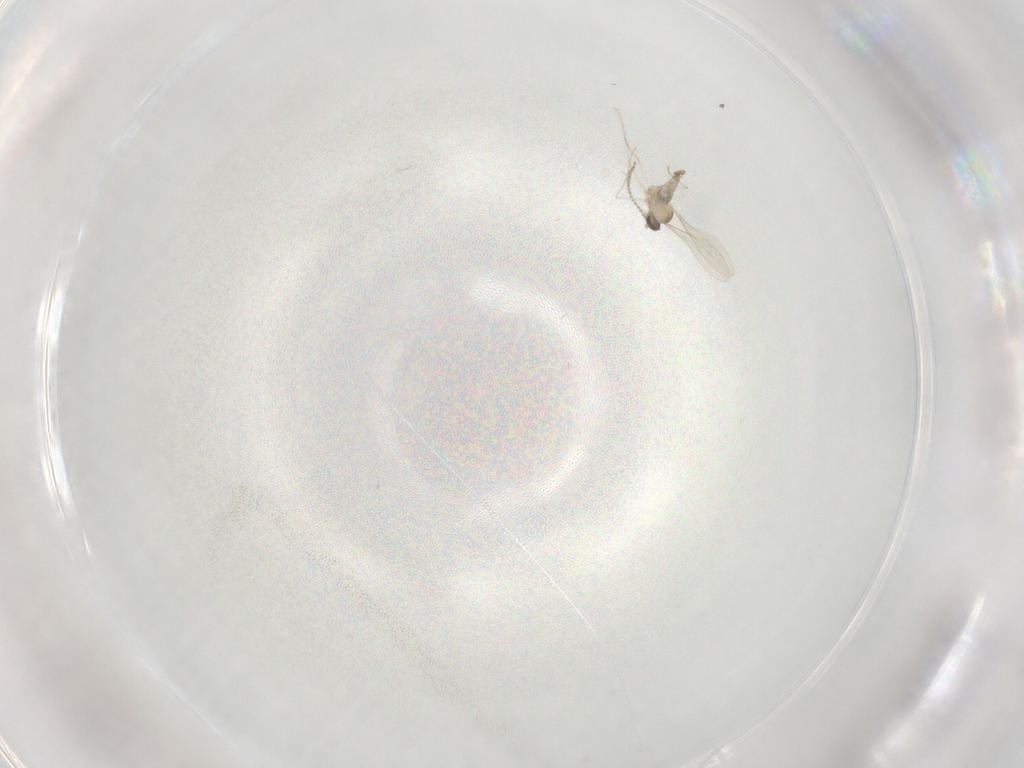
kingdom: Animalia
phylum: Arthropoda
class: Insecta
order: Diptera
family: Cecidomyiidae
